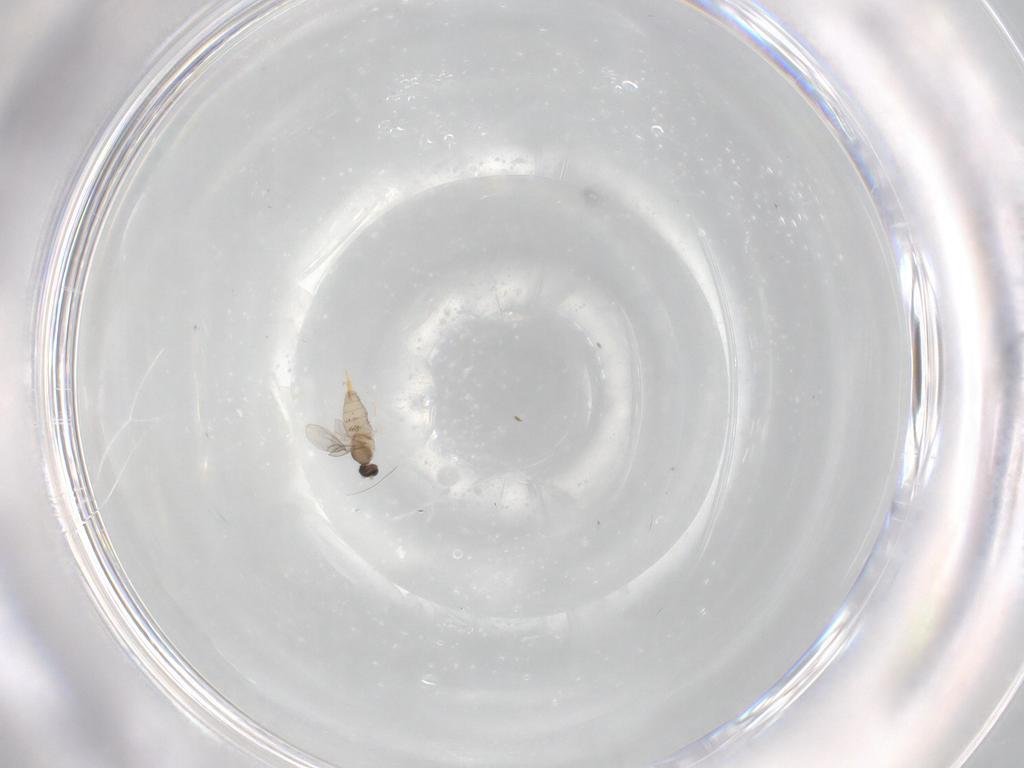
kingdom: Animalia
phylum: Arthropoda
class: Insecta
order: Diptera
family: Cecidomyiidae
